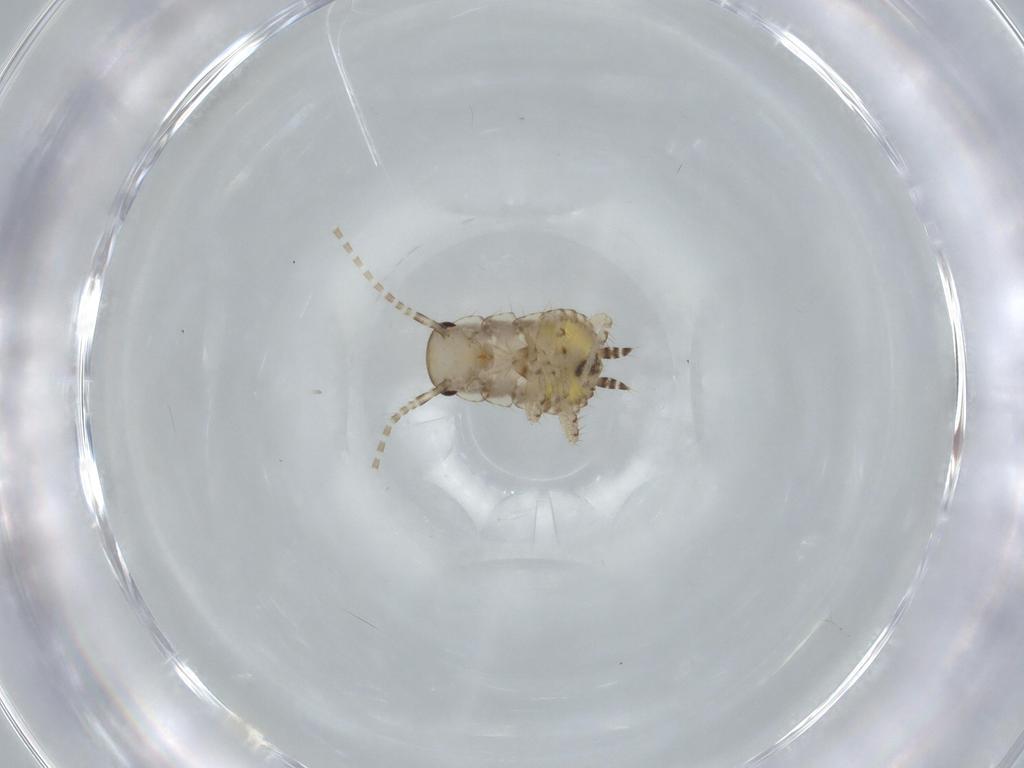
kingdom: Animalia
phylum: Arthropoda
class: Insecta
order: Blattodea
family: Ectobiidae
